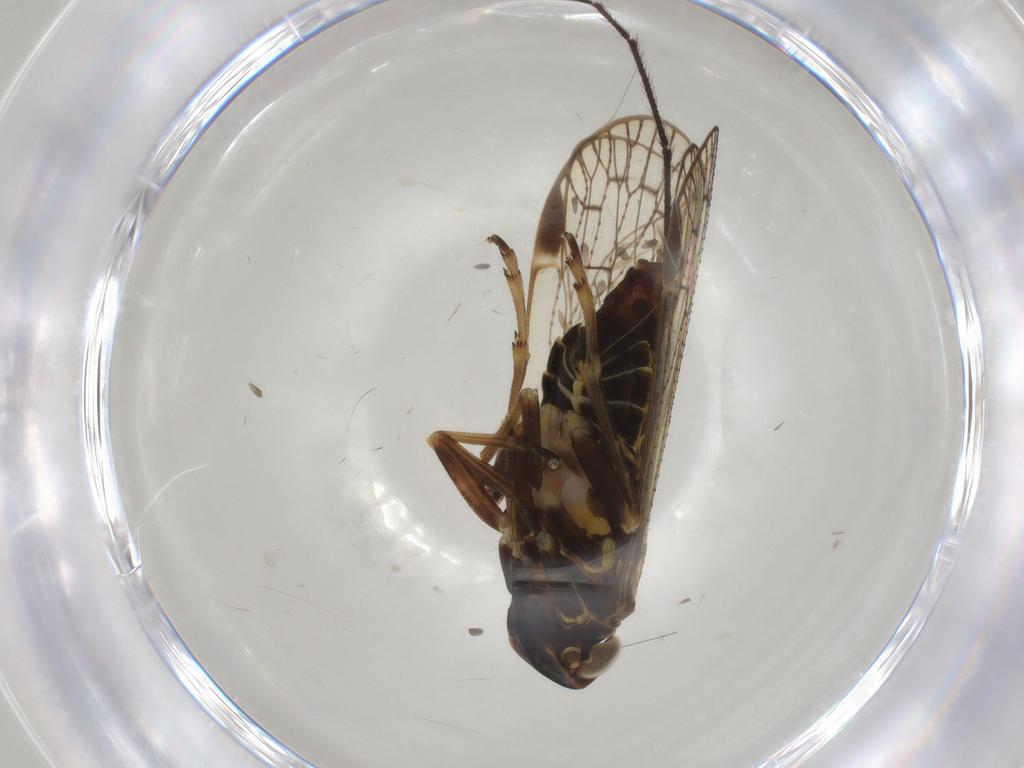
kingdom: Animalia
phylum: Arthropoda
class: Insecta
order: Hemiptera
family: Cixiidae
